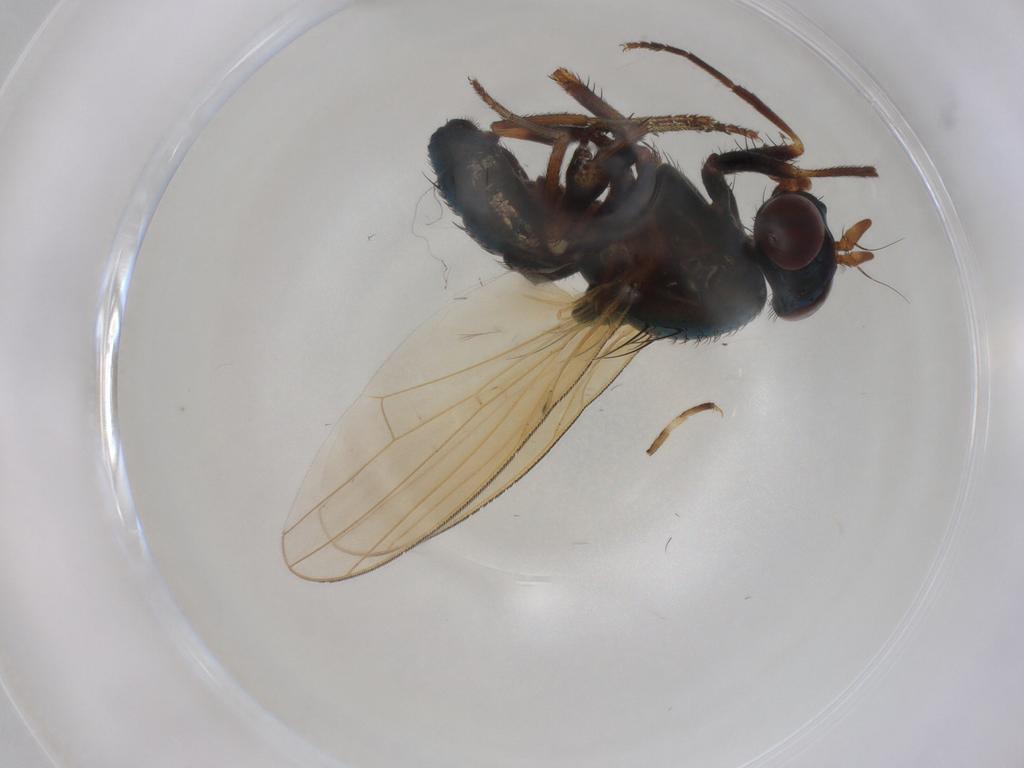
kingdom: Animalia
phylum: Arthropoda
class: Insecta
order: Diptera
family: Lauxaniidae
